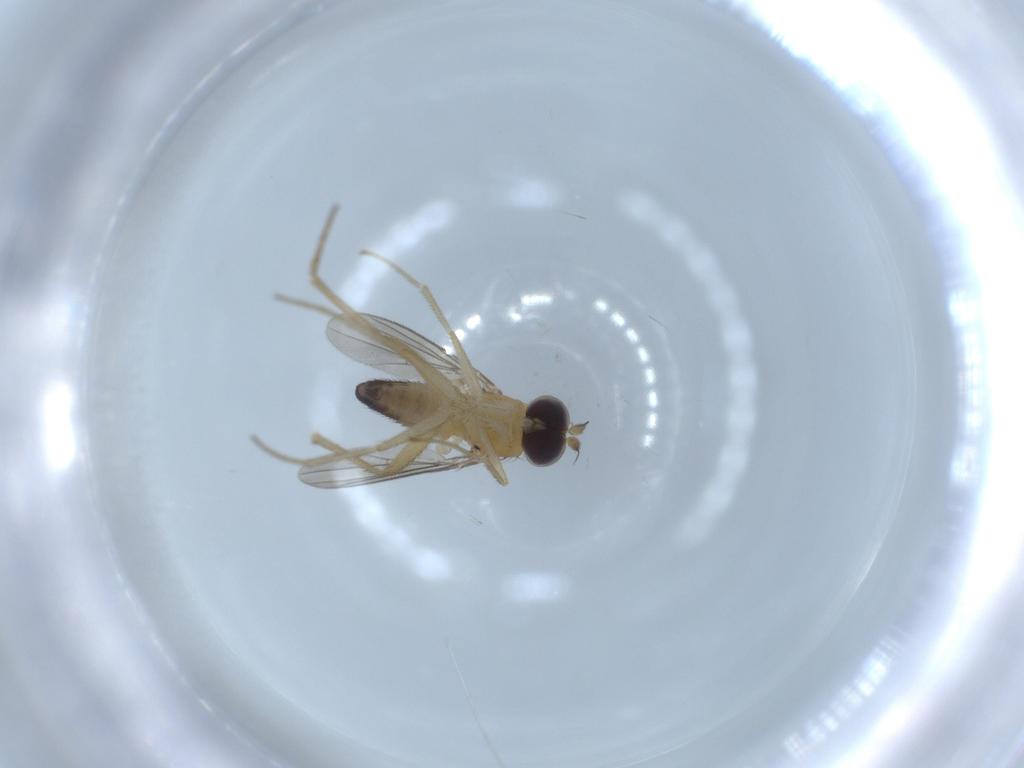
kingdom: Animalia
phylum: Arthropoda
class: Insecta
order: Diptera
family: Dolichopodidae
